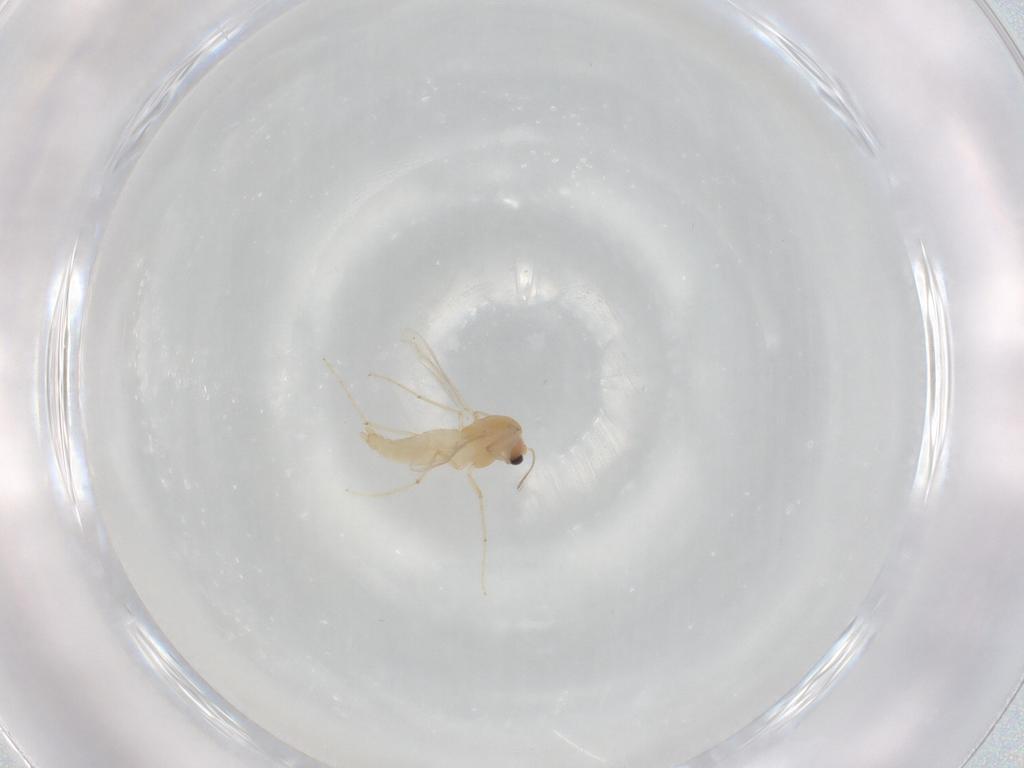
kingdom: Animalia
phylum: Arthropoda
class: Insecta
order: Diptera
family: Chironomidae
